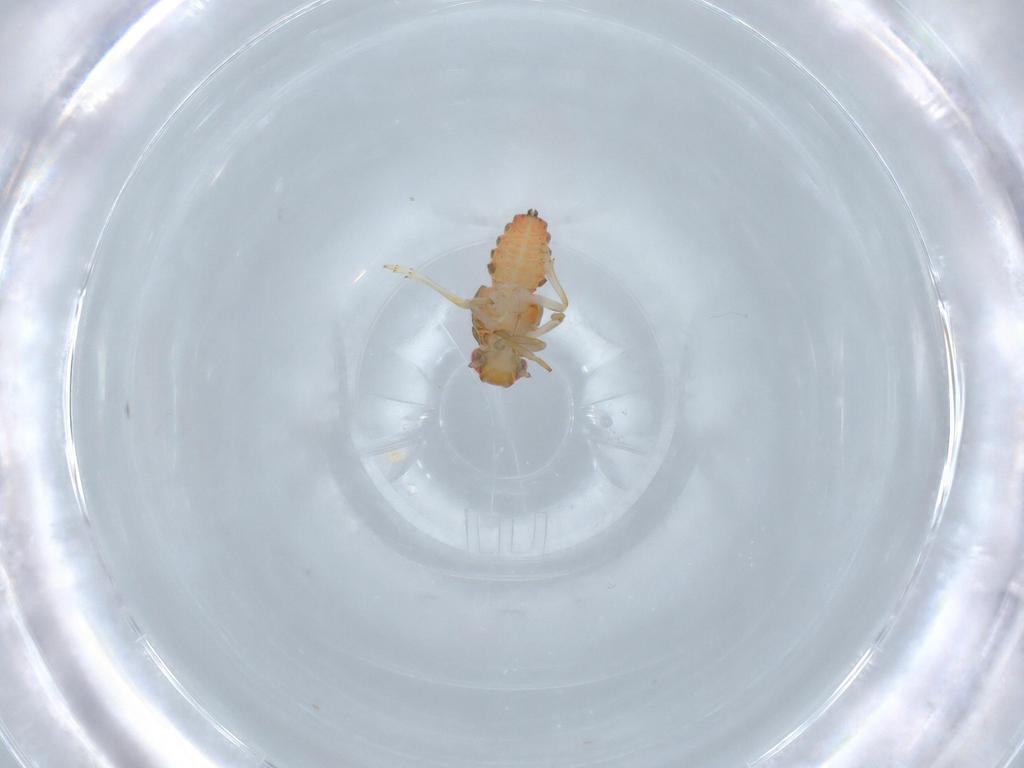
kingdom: Animalia
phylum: Arthropoda
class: Insecta
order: Hemiptera
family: Issidae
